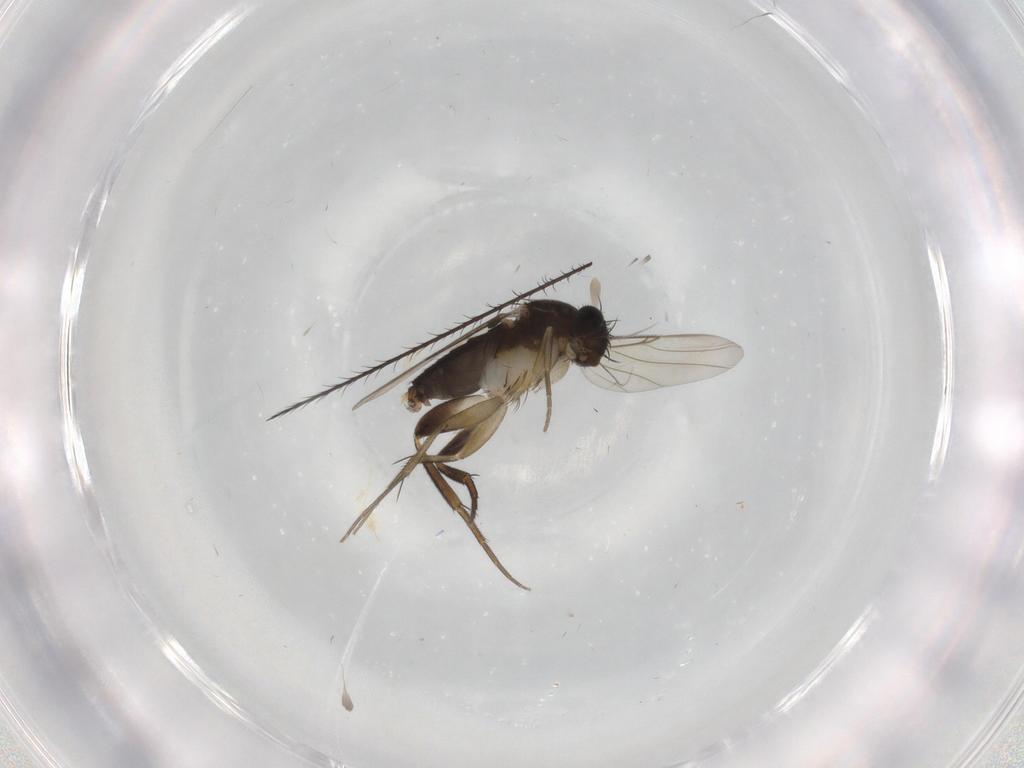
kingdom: Animalia
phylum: Arthropoda
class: Insecta
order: Diptera
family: Phoridae
